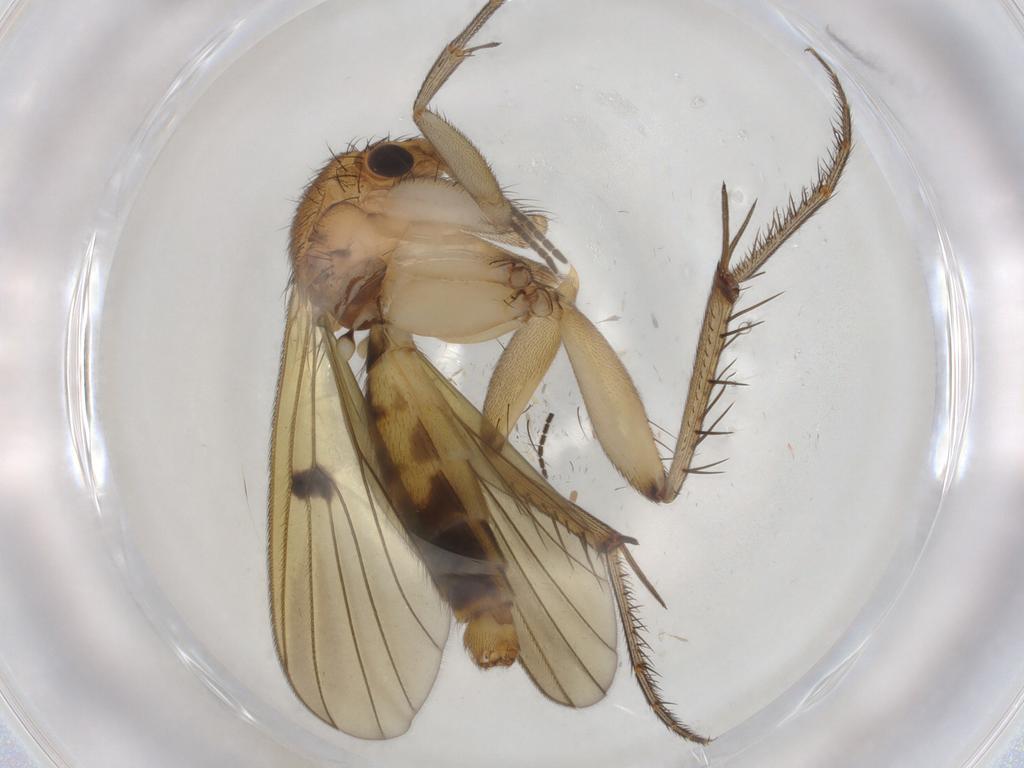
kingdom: Animalia
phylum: Arthropoda
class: Insecta
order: Diptera
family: Chironomidae
